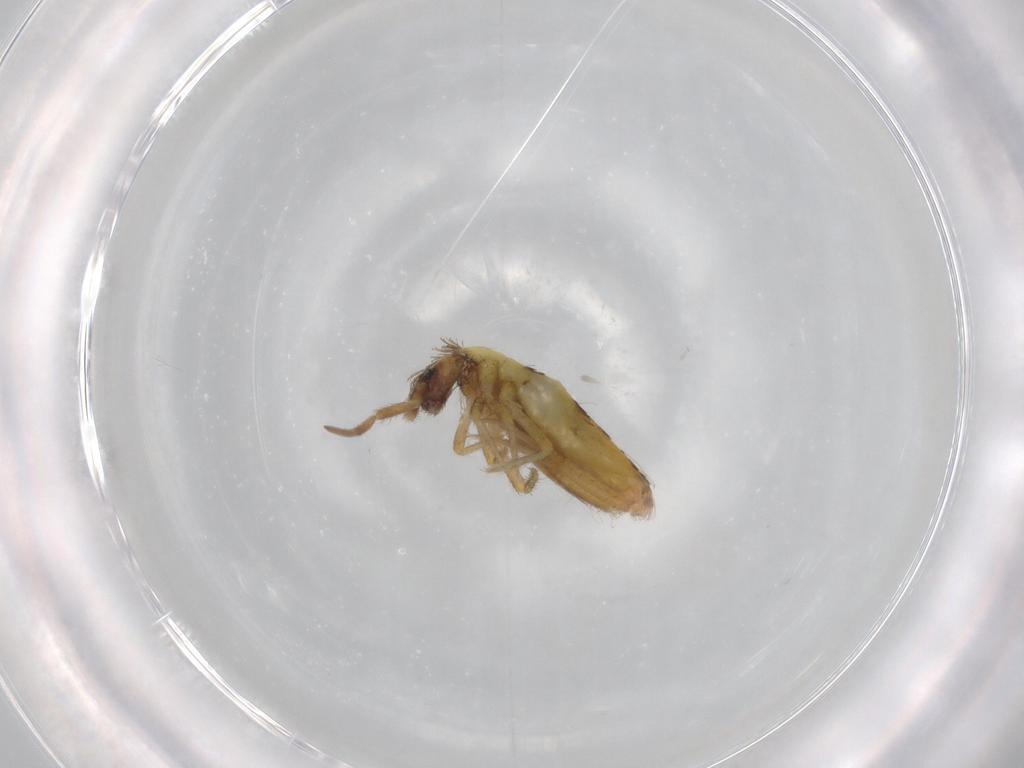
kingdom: Animalia
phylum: Arthropoda
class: Collembola
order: Entomobryomorpha
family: Entomobryidae
